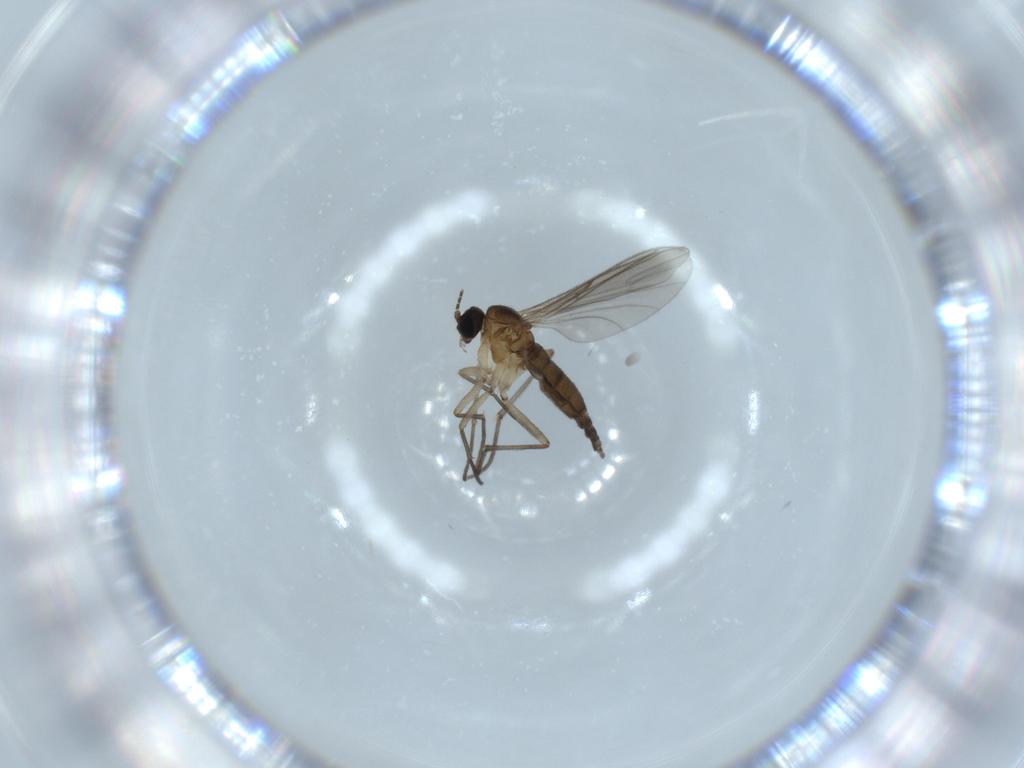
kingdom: Animalia
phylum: Arthropoda
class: Insecta
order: Diptera
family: Sciaridae
